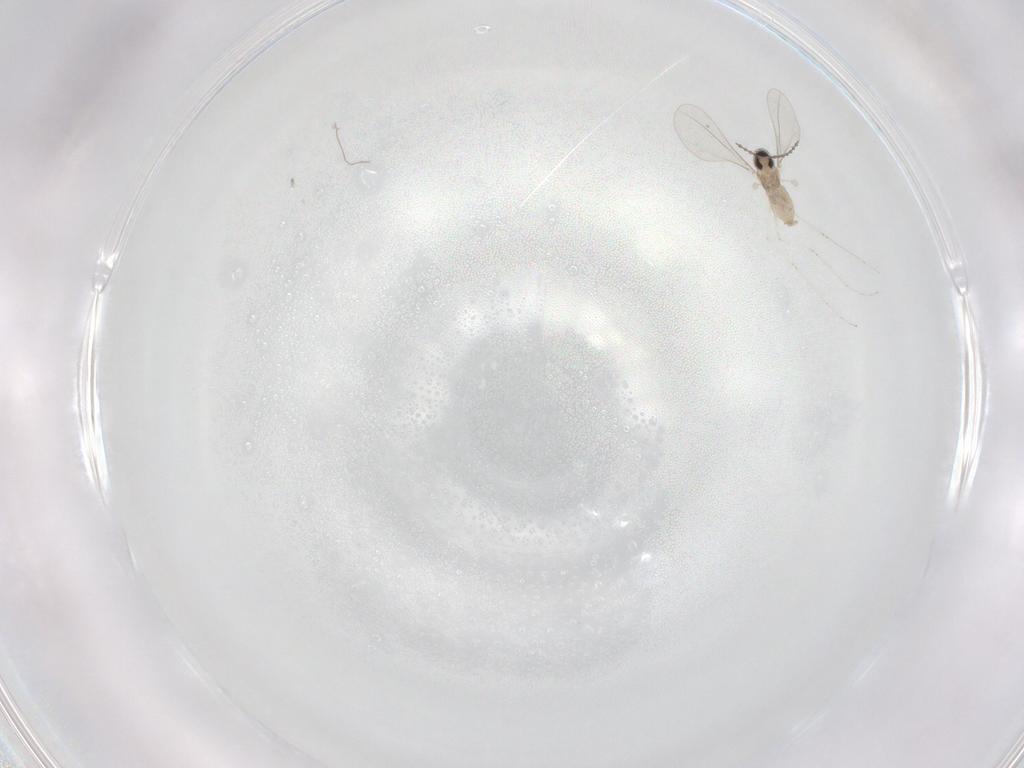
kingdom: Animalia
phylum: Arthropoda
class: Insecta
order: Diptera
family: Cecidomyiidae
